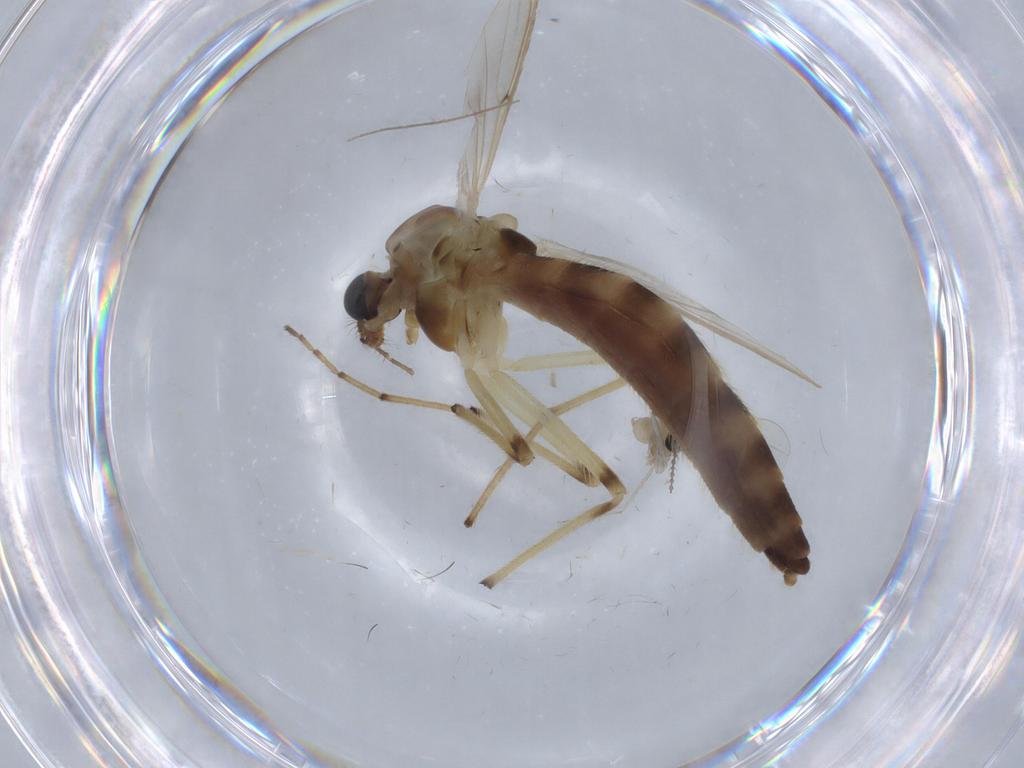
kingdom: Animalia
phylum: Arthropoda
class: Insecta
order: Diptera
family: Chironomidae
